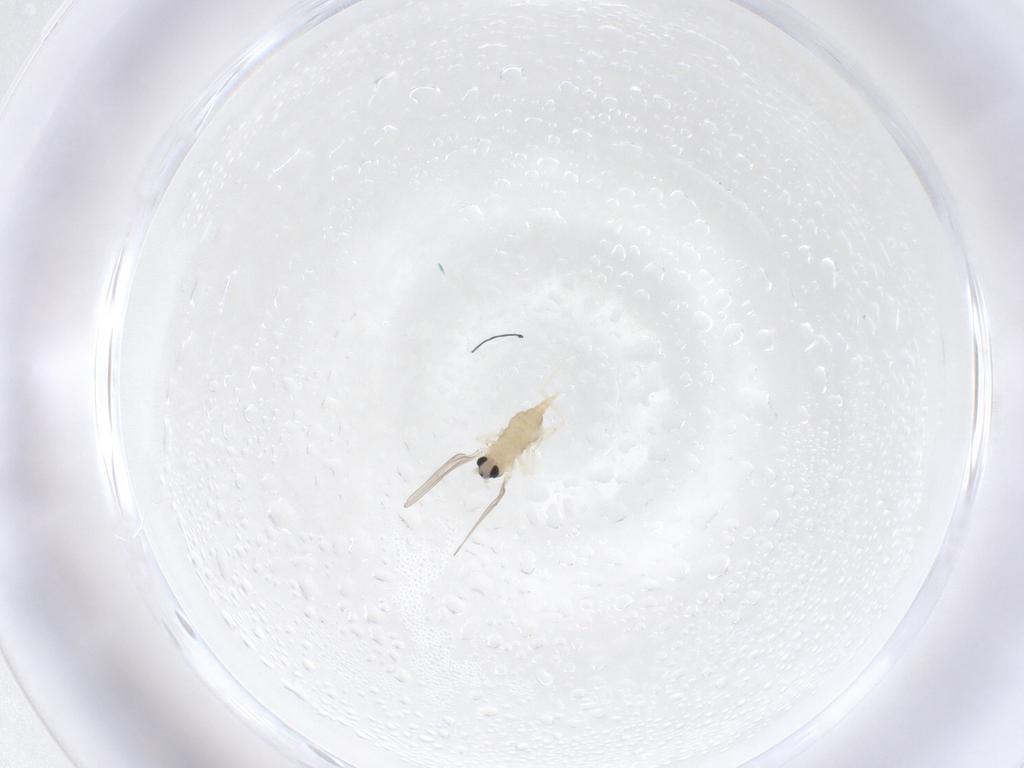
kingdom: Animalia
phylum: Arthropoda
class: Insecta
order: Diptera
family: Cecidomyiidae
